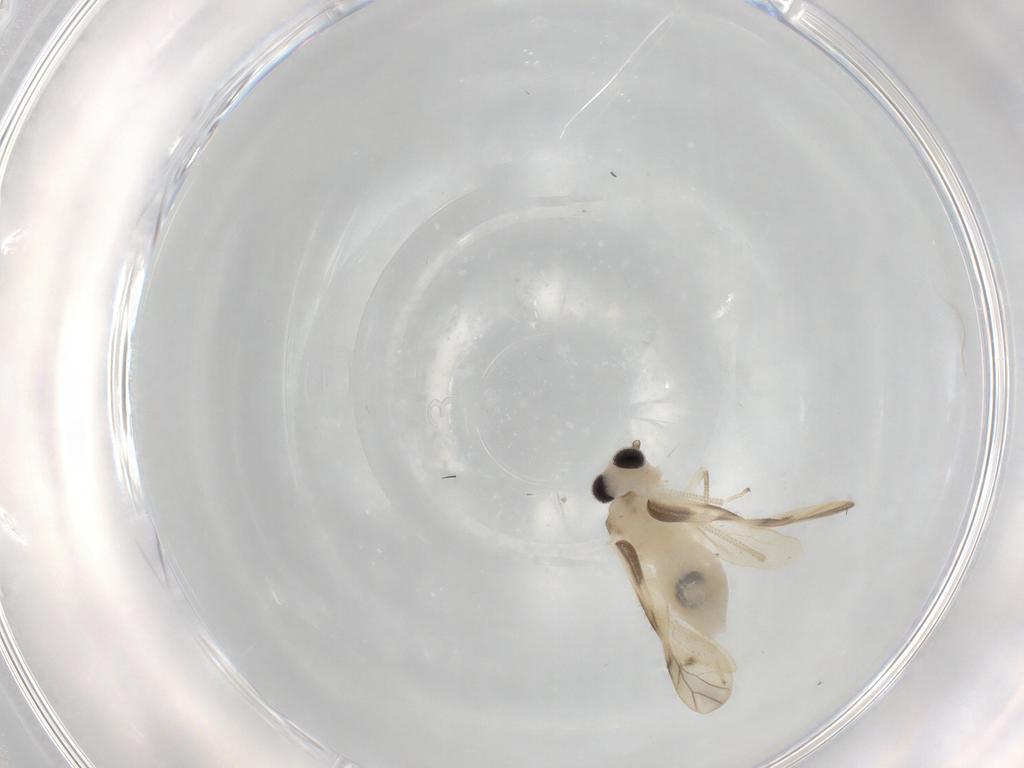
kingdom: Animalia
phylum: Arthropoda
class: Insecta
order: Psocodea
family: Caeciliusidae
